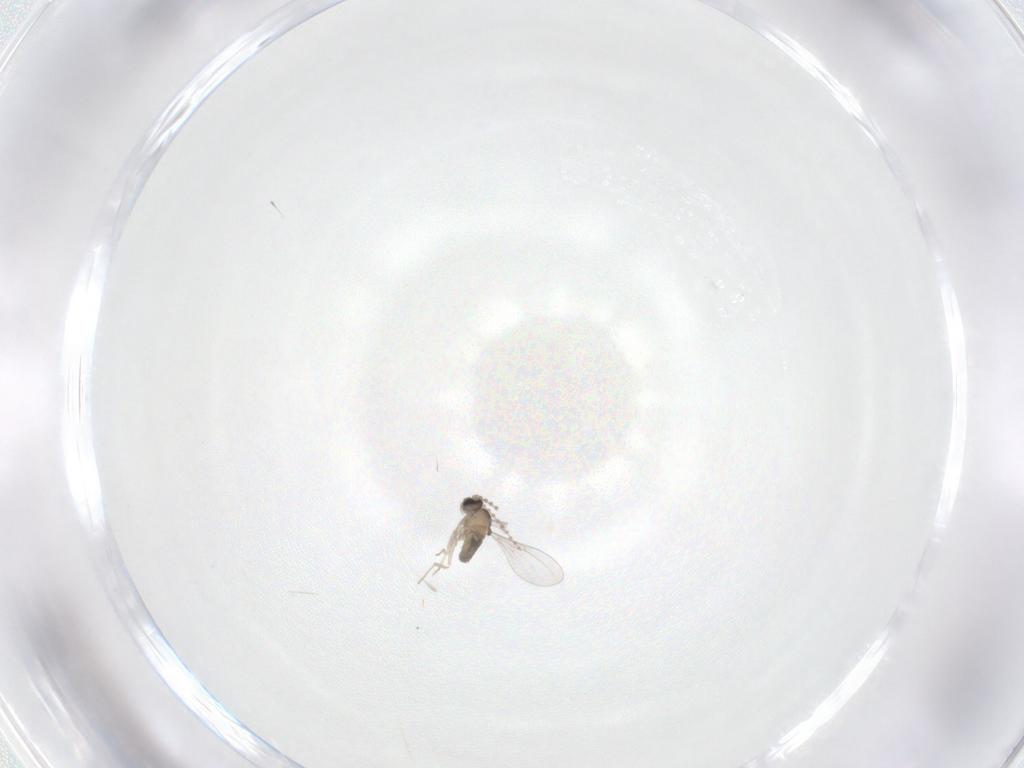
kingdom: Animalia
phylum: Arthropoda
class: Insecta
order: Diptera
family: Cecidomyiidae
